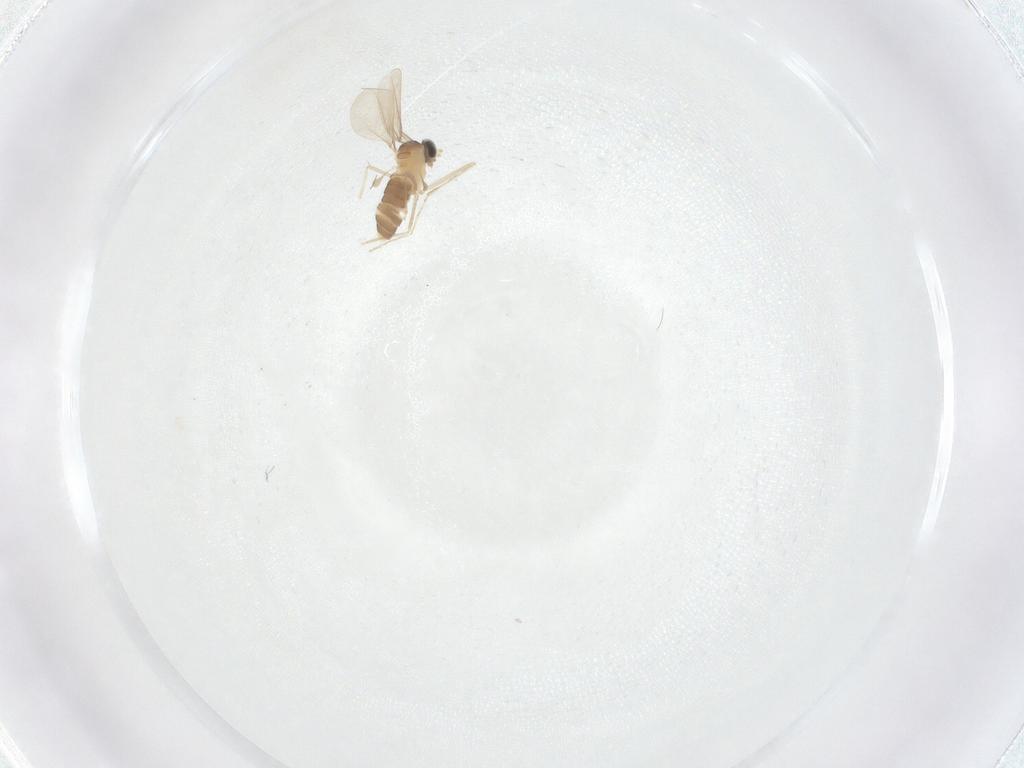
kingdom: Animalia
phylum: Arthropoda
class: Insecta
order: Diptera
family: Cecidomyiidae
